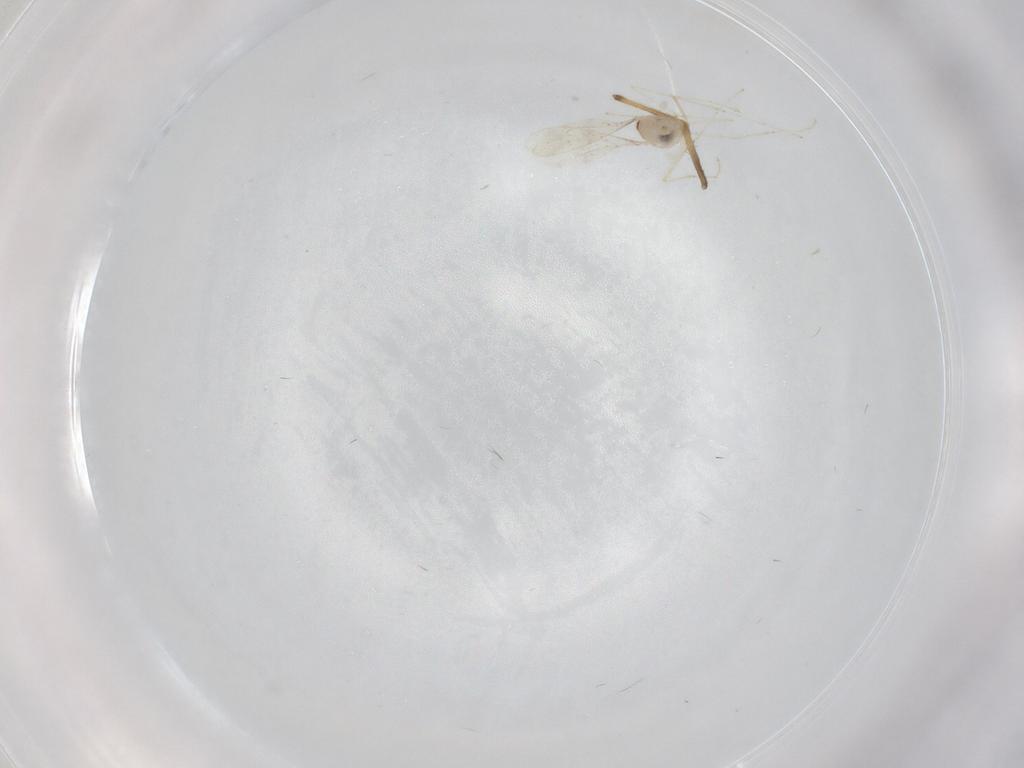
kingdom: Animalia
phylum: Arthropoda
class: Insecta
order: Diptera
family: Cecidomyiidae
